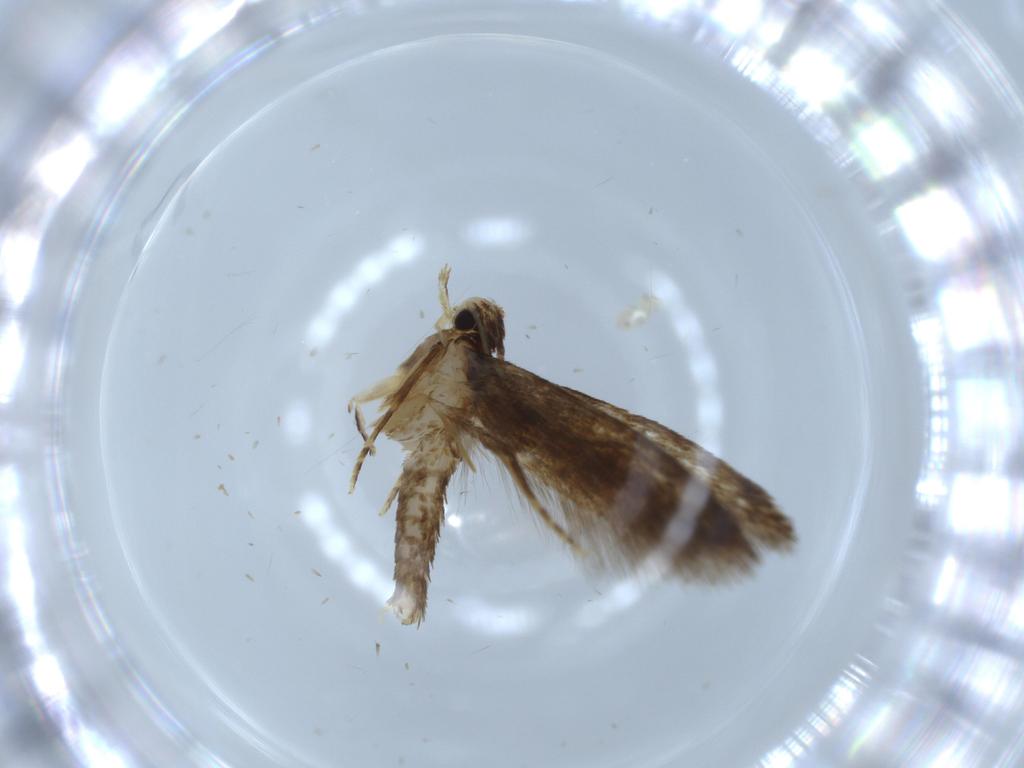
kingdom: Animalia
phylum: Arthropoda
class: Insecta
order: Lepidoptera
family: Tineidae
